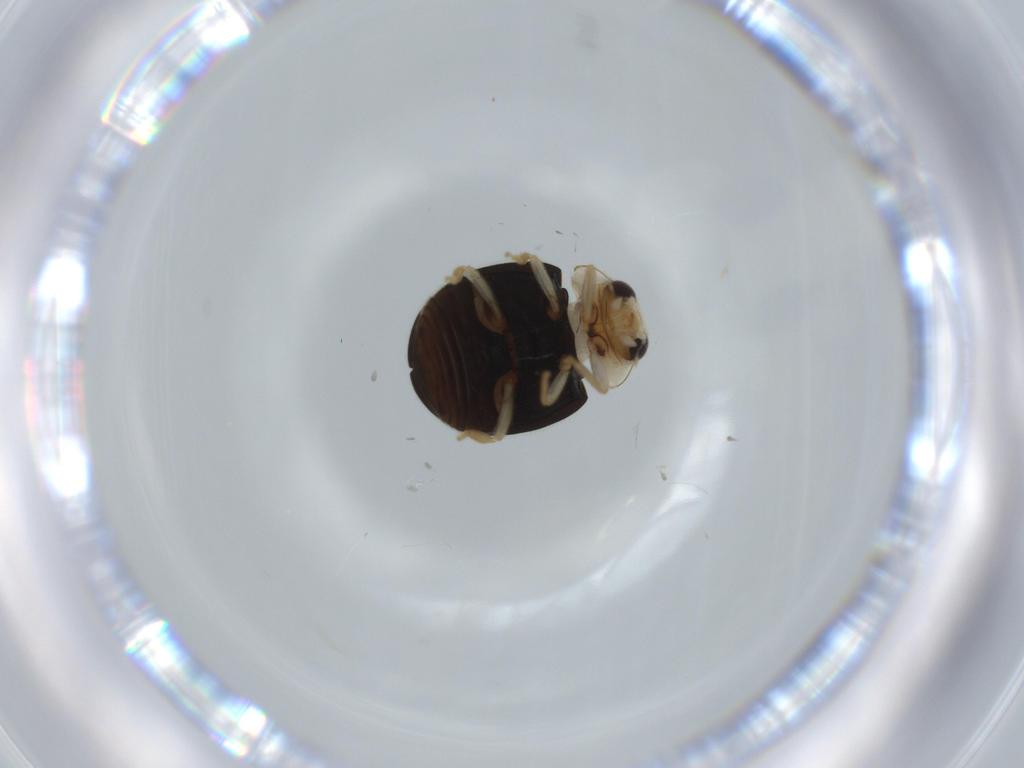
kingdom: Animalia
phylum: Arthropoda
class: Insecta
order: Coleoptera
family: Coccinellidae
